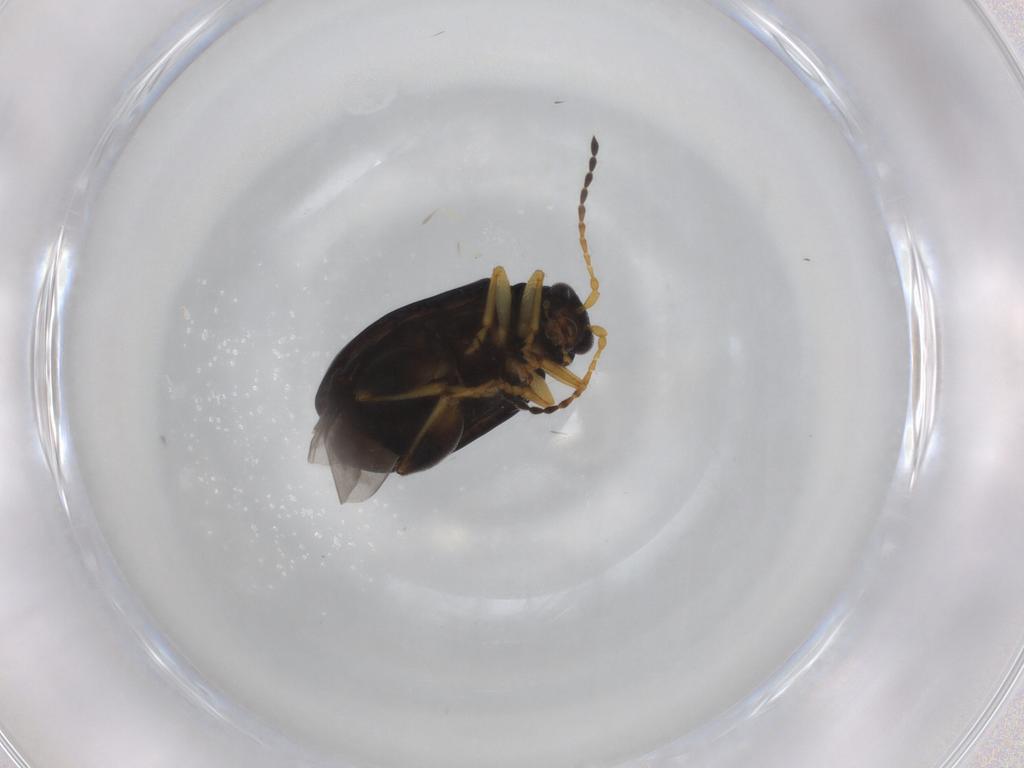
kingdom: Animalia
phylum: Arthropoda
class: Insecta
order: Coleoptera
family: Chrysomelidae
